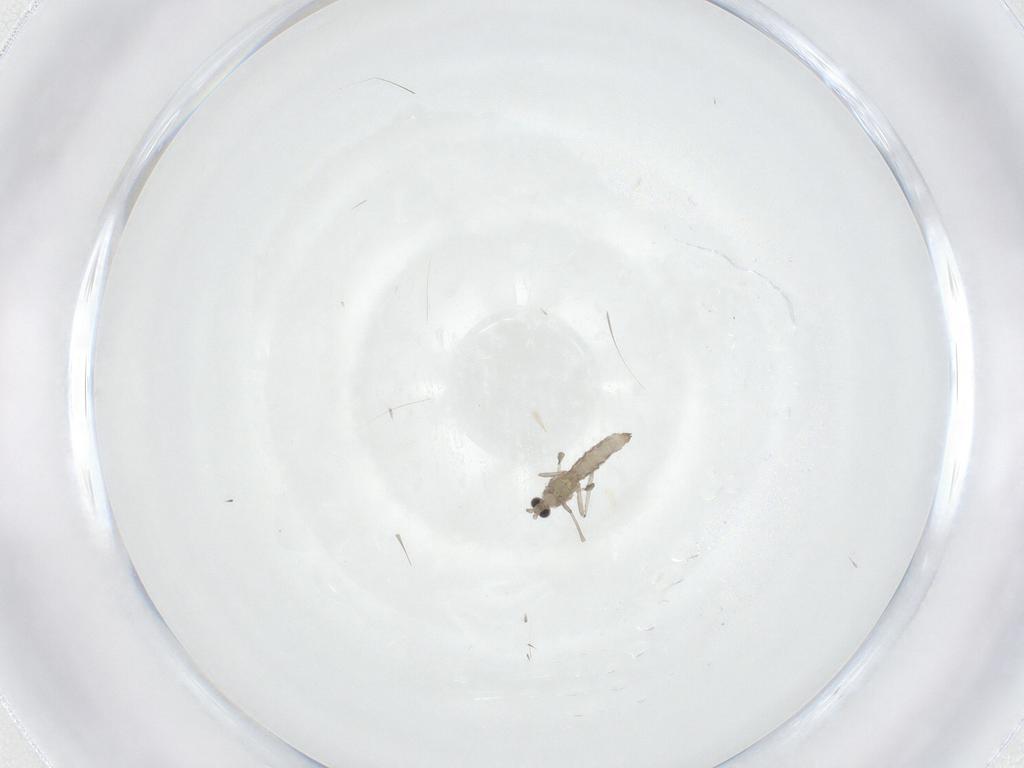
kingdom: Animalia
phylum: Arthropoda
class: Insecta
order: Diptera
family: Cecidomyiidae
